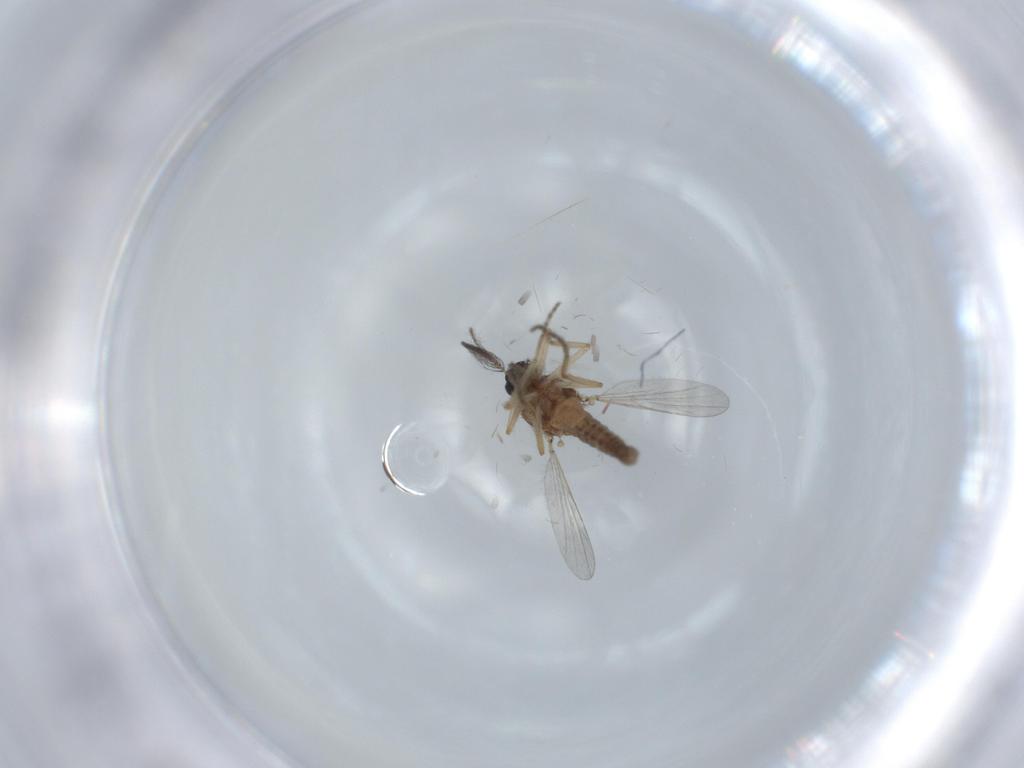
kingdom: Animalia
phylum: Arthropoda
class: Insecta
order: Diptera
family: Ceratopogonidae
